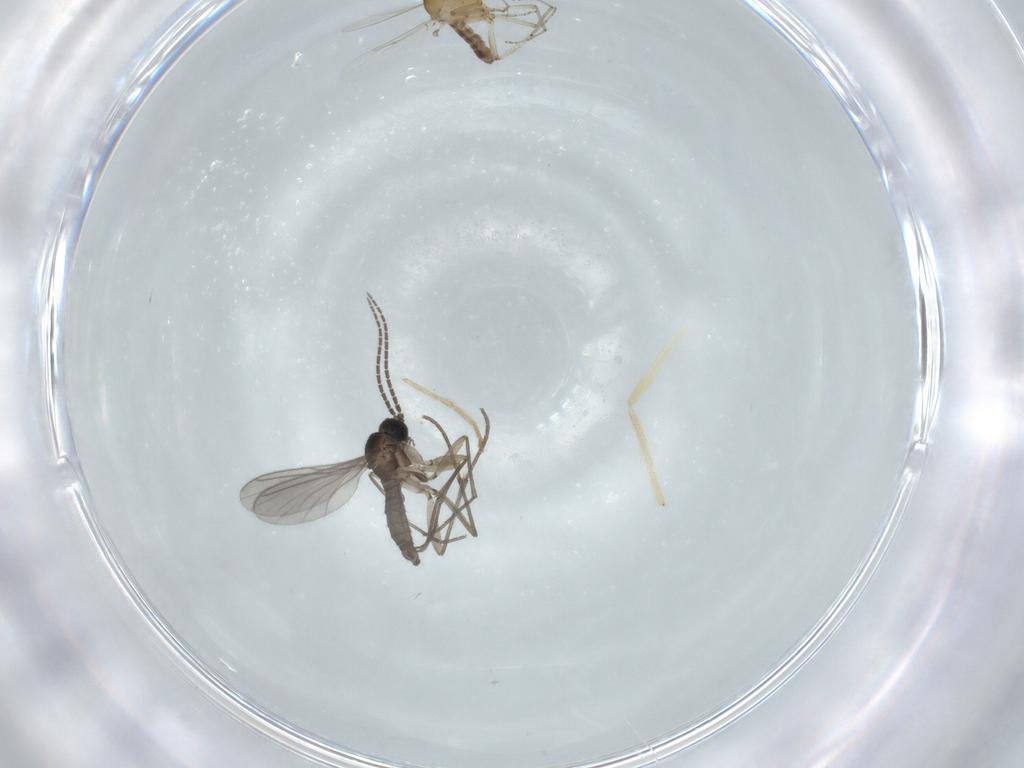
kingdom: Animalia
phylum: Arthropoda
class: Insecta
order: Diptera
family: Sciaridae
